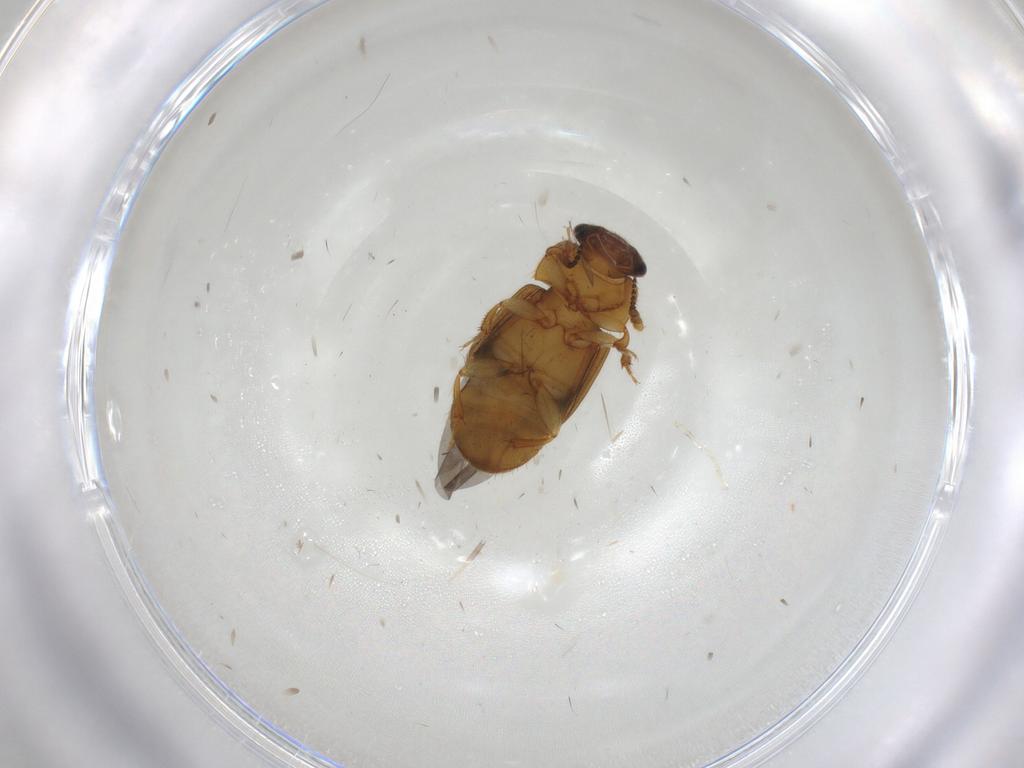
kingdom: Animalia
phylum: Arthropoda
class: Insecta
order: Coleoptera
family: Nitidulidae
